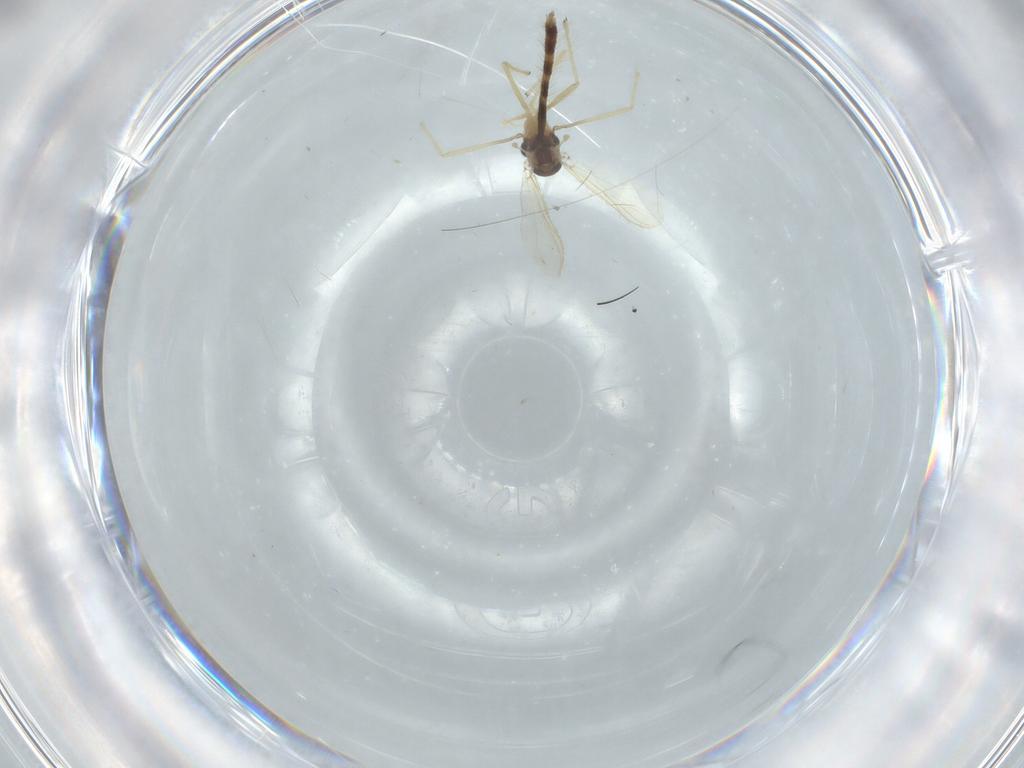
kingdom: Animalia
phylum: Arthropoda
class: Insecta
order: Diptera
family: Chironomidae
